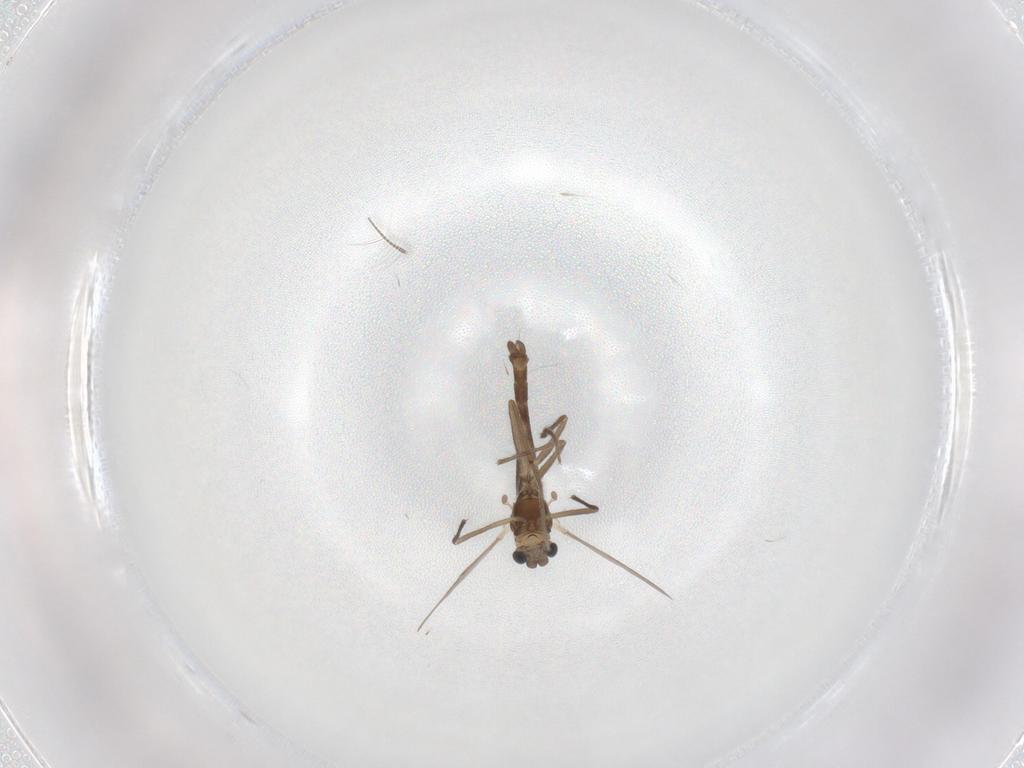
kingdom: Animalia
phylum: Arthropoda
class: Insecta
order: Diptera
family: Chironomidae
